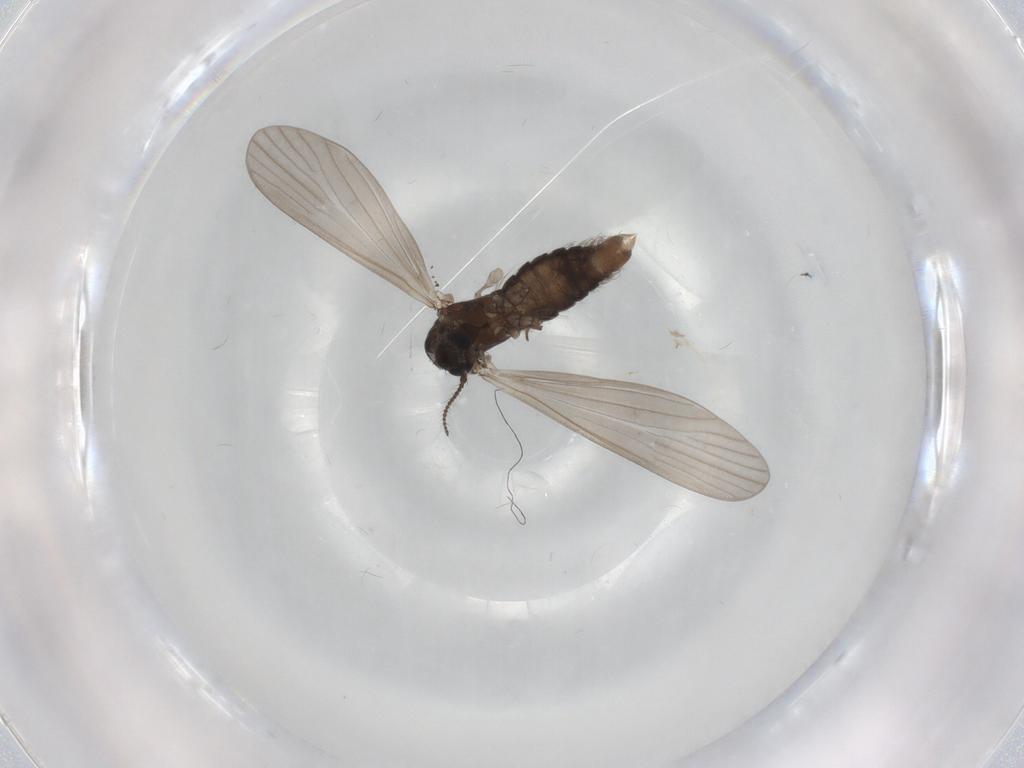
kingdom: Animalia
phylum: Arthropoda
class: Insecta
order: Diptera
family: Limoniidae
